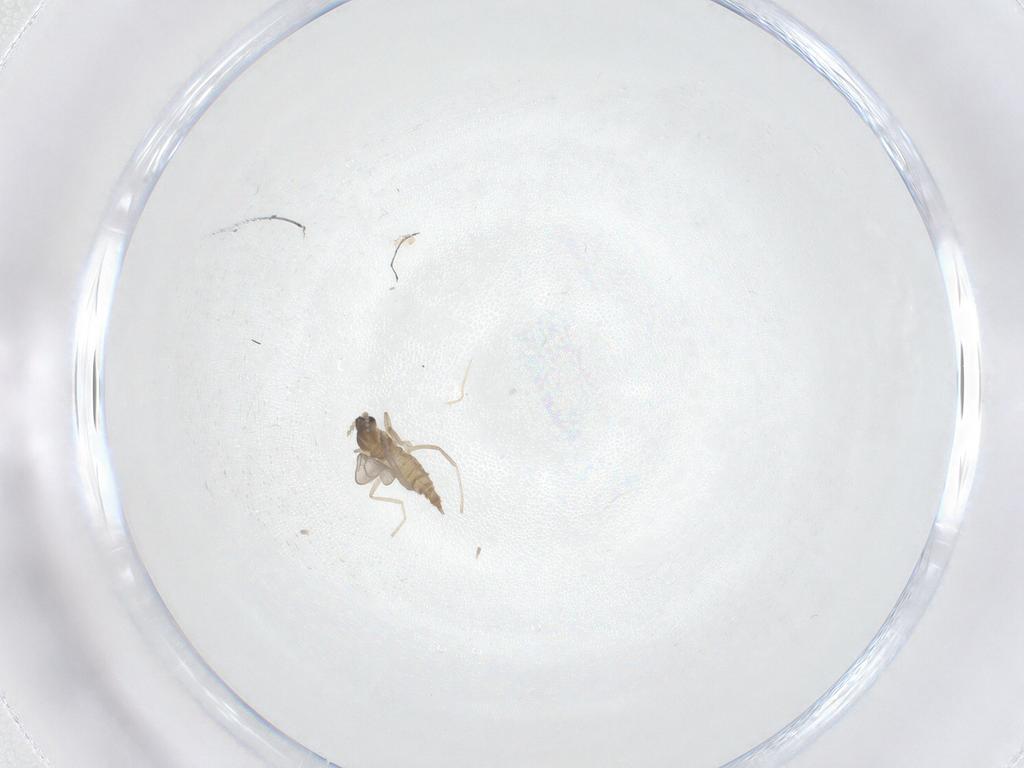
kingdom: Animalia
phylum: Arthropoda
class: Insecta
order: Diptera
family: Cecidomyiidae
